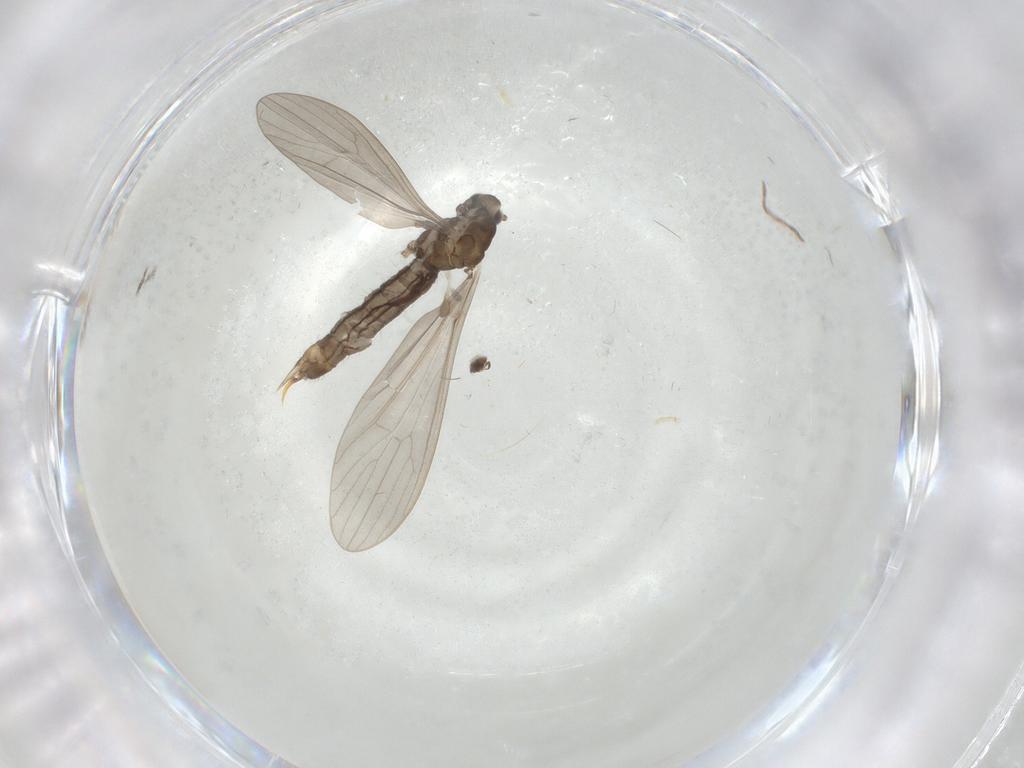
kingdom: Animalia
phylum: Arthropoda
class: Insecta
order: Diptera
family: Limoniidae
